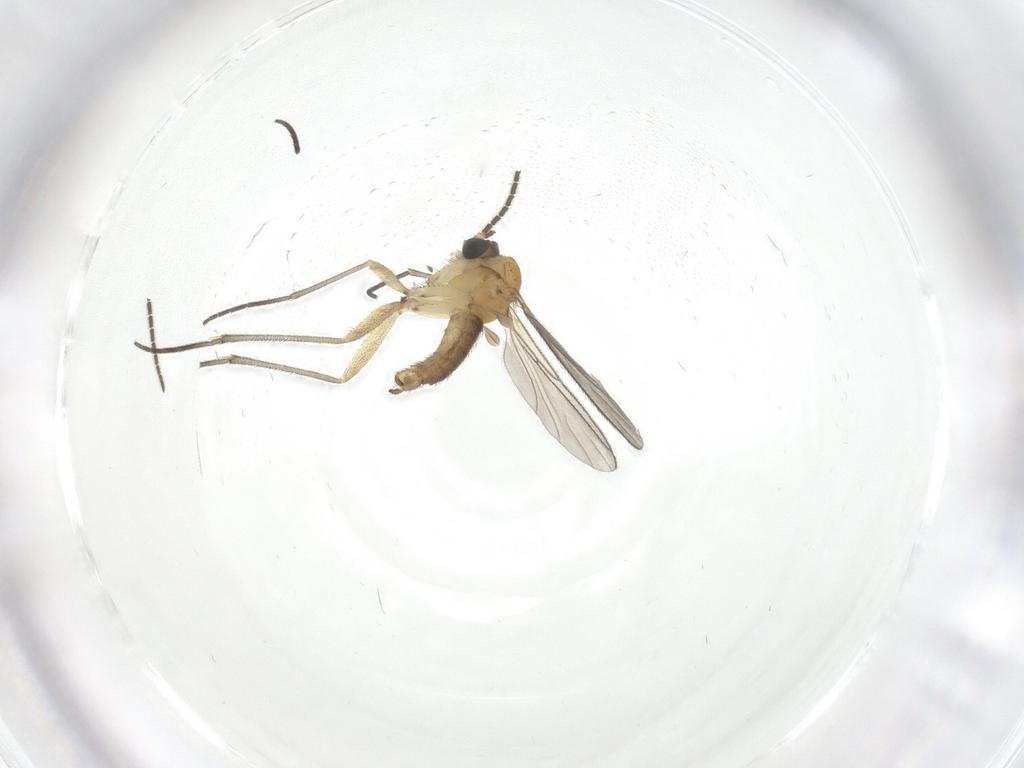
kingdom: Animalia
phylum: Arthropoda
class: Insecta
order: Diptera
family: Sciaridae
